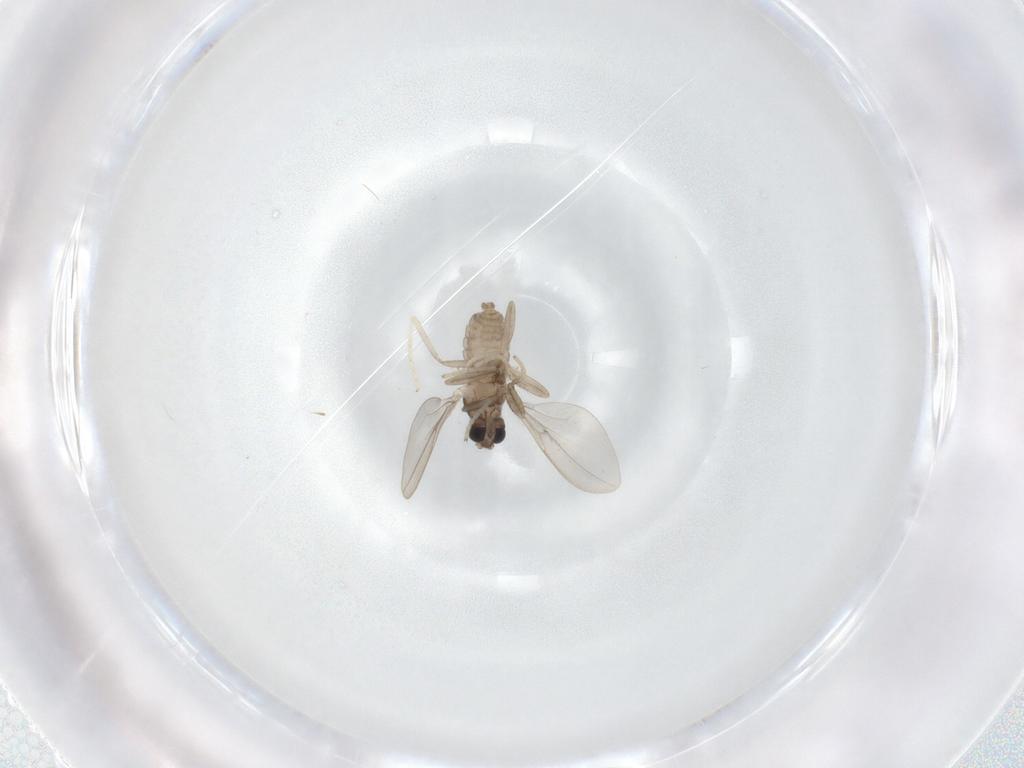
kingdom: Animalia
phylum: Arthropoda
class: Insecta
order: Diptera
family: Cecidomyiidae
